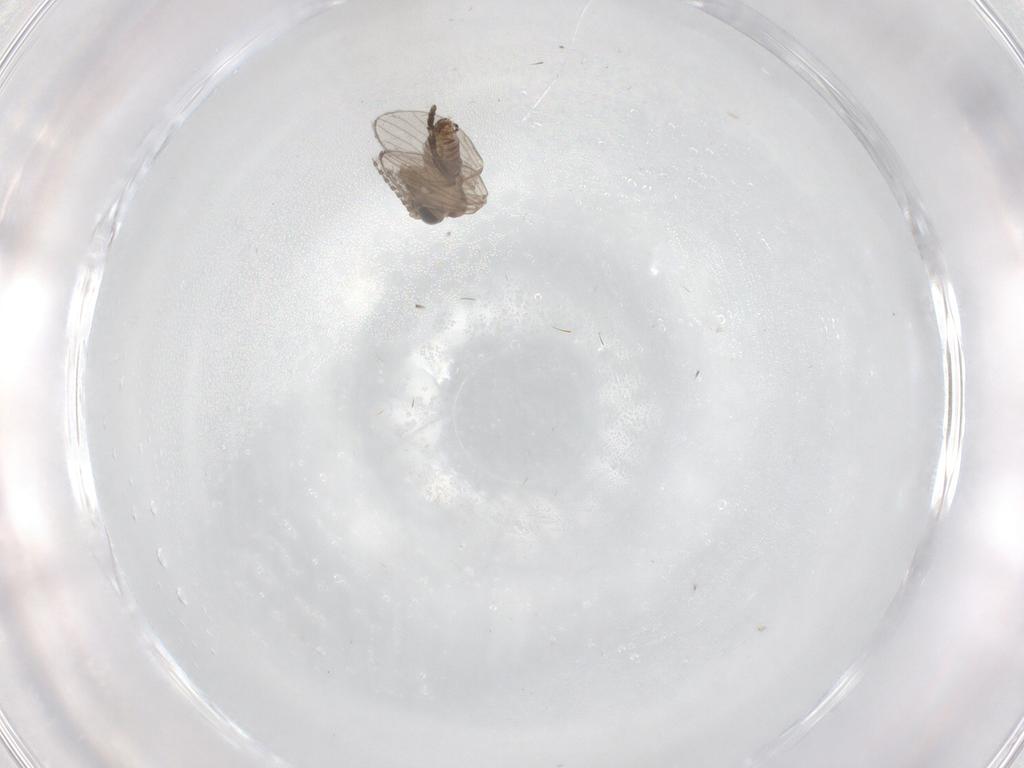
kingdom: Animalia
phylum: Arthropoda
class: Insecta
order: Diptera
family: Psychodidae
